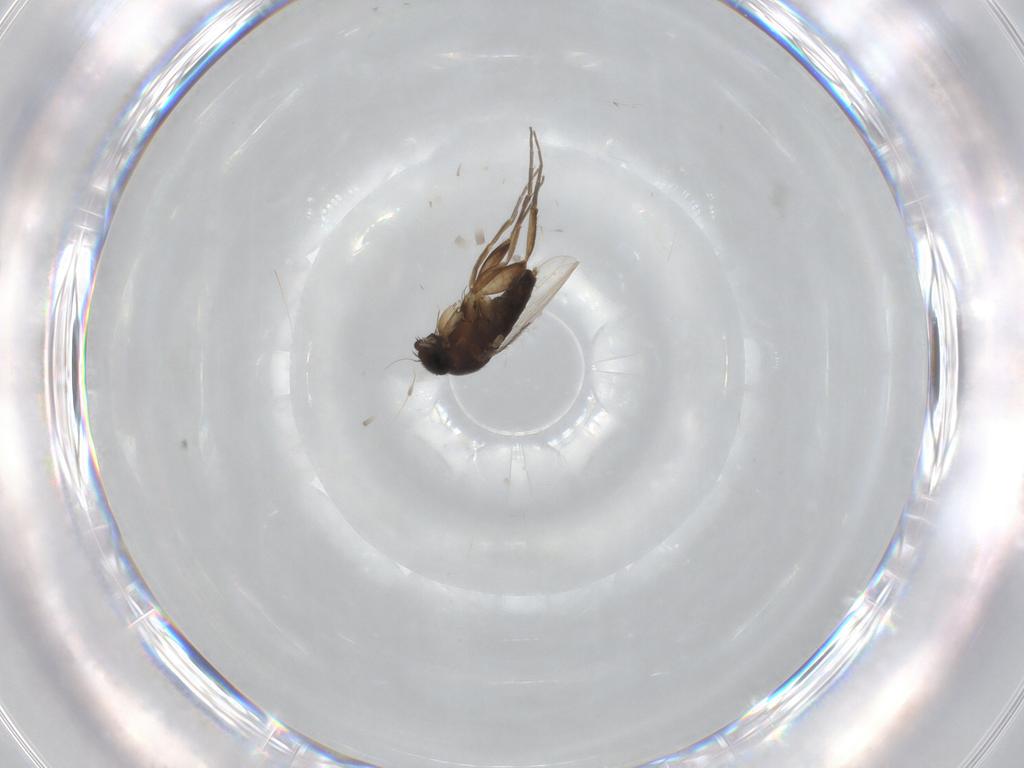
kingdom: Animalia
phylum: Arthropoda
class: Insecta
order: Diptera
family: Phoridae
